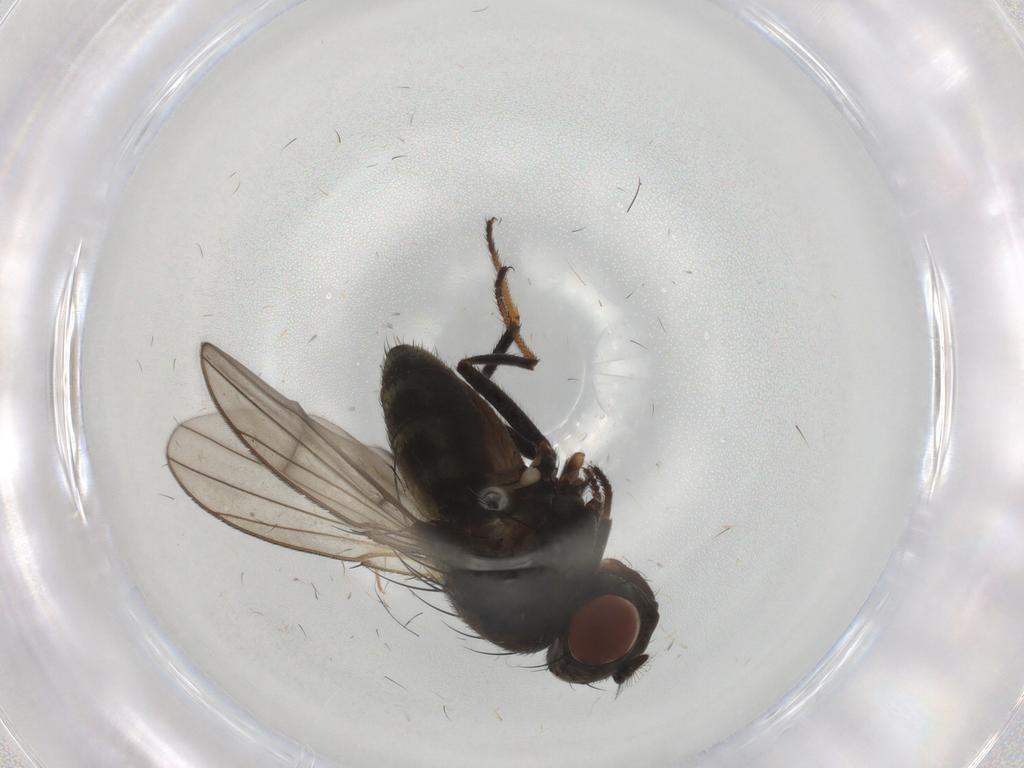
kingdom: Animalia
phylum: Arthropoda
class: Insecta
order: Diptera
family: Ephydridae
